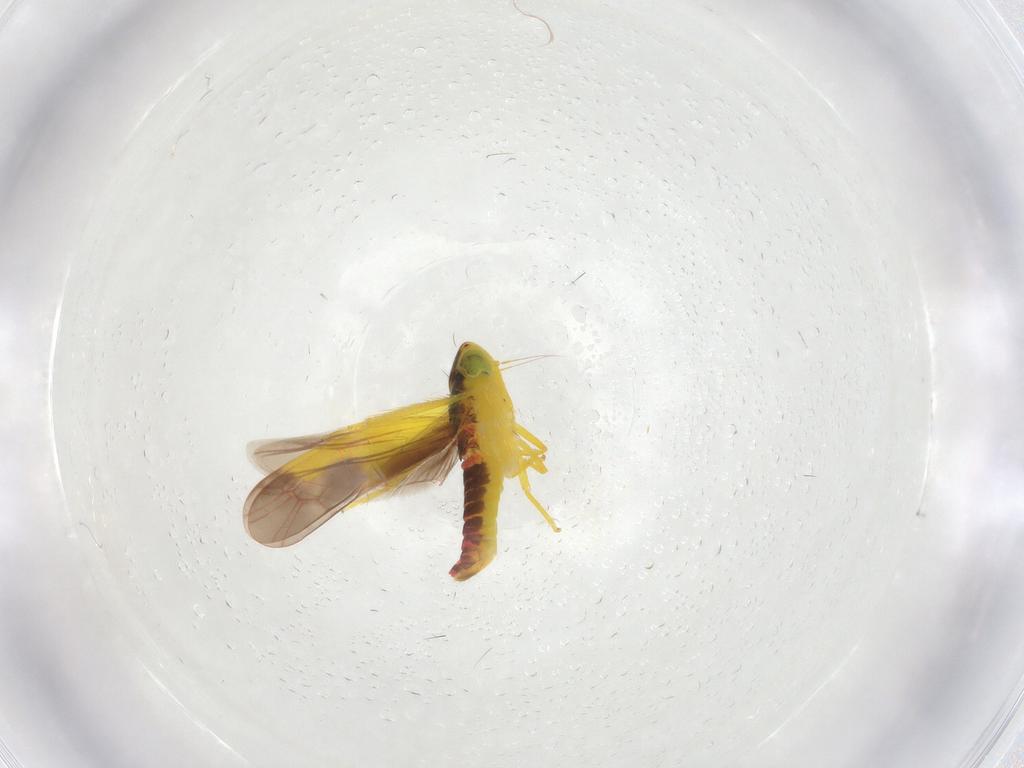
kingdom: Animalia
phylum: Arthropoda
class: Insecta
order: Hemiptera
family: Cicadellidae
